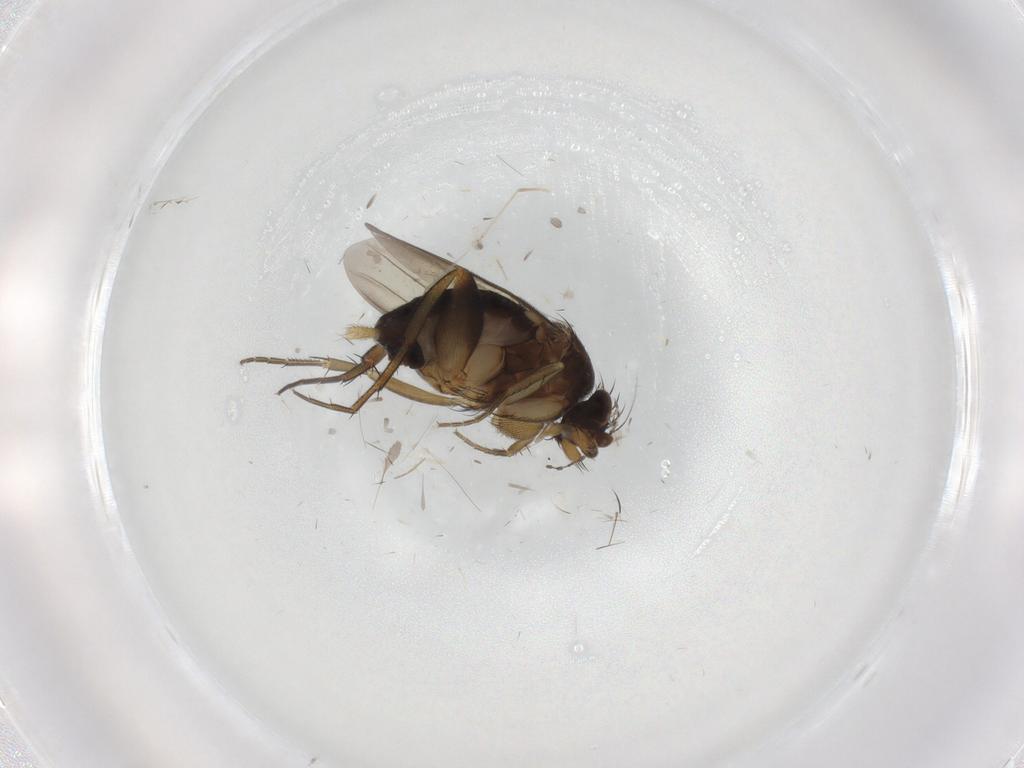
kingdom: Animalia
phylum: Arthropoda
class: Insecta
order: Diptera
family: Phoridae
